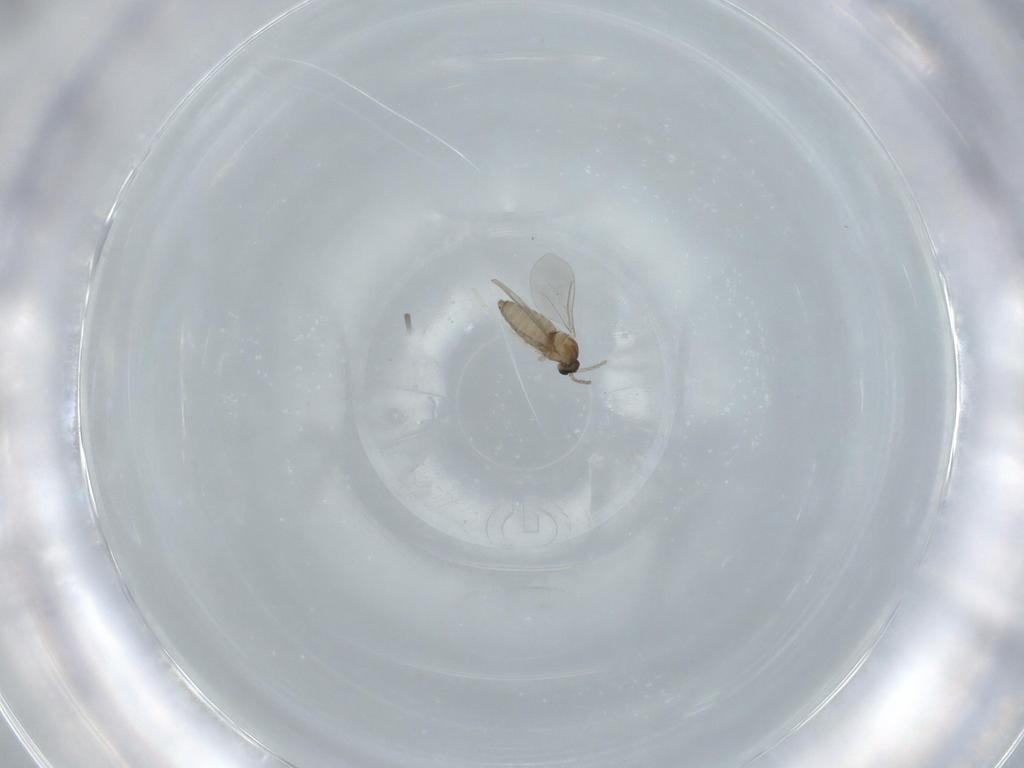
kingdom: Animalia
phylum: Arthropoda
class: Insecta
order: Diptera
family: Cecidomyiidae
